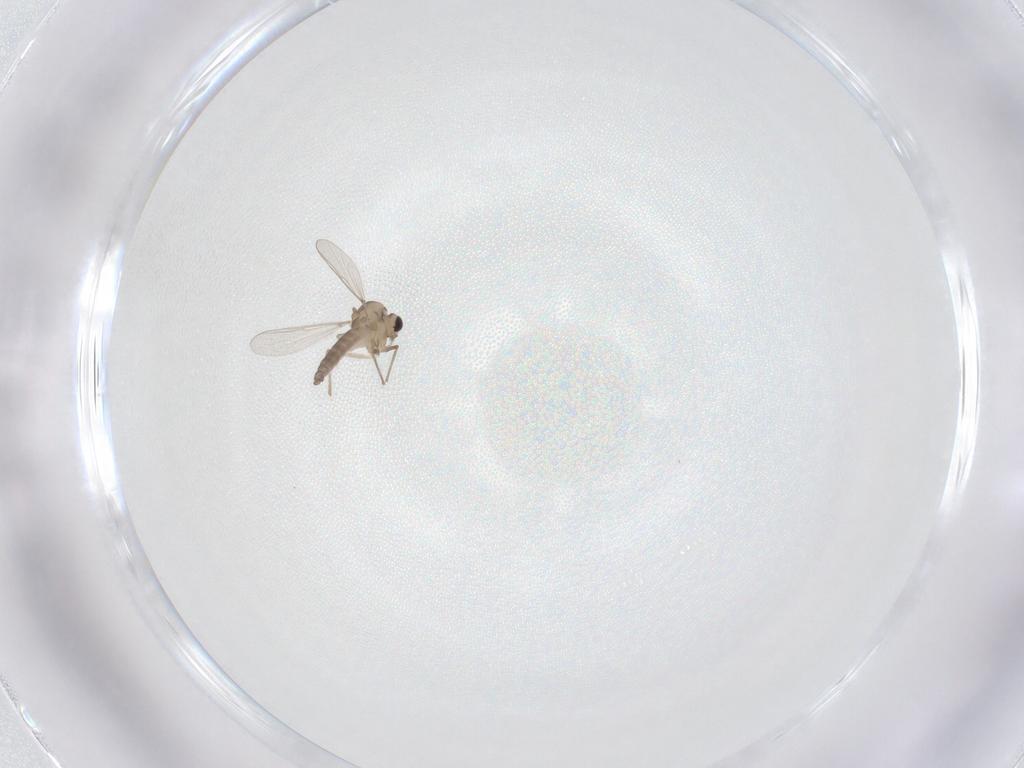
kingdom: Animalia
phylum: Arthropoda
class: Insecta
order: Diptera
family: Chironomidae
